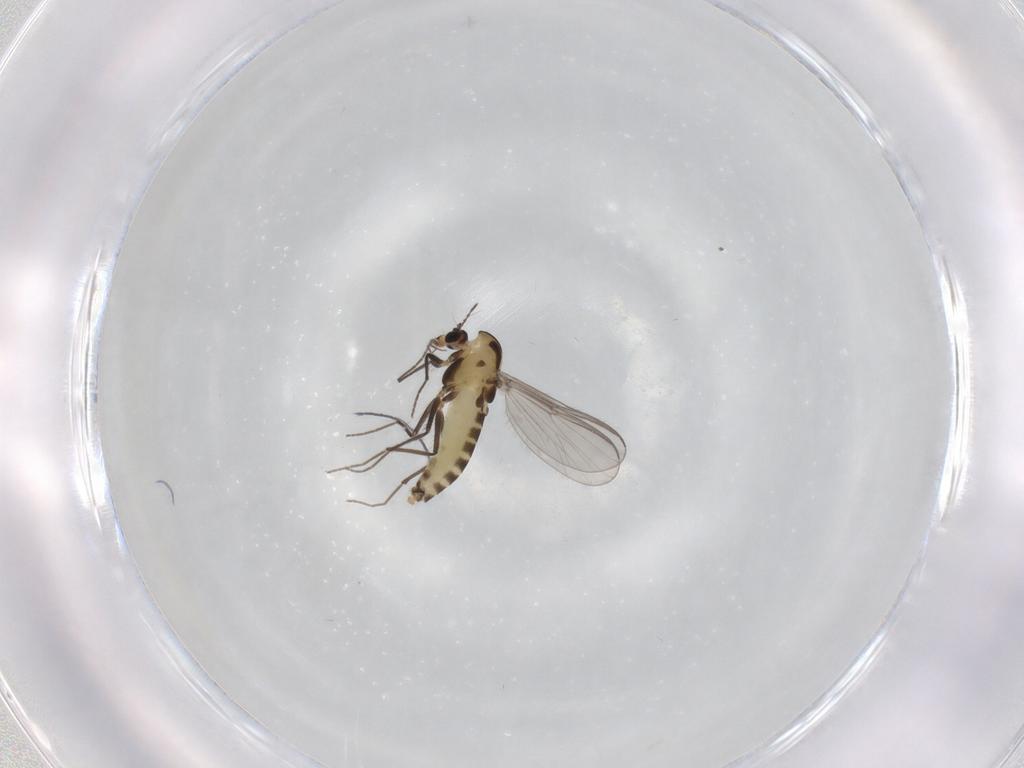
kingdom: Animalia
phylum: Arthropoda
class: Insecta
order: Diptera
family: Chironomidae
